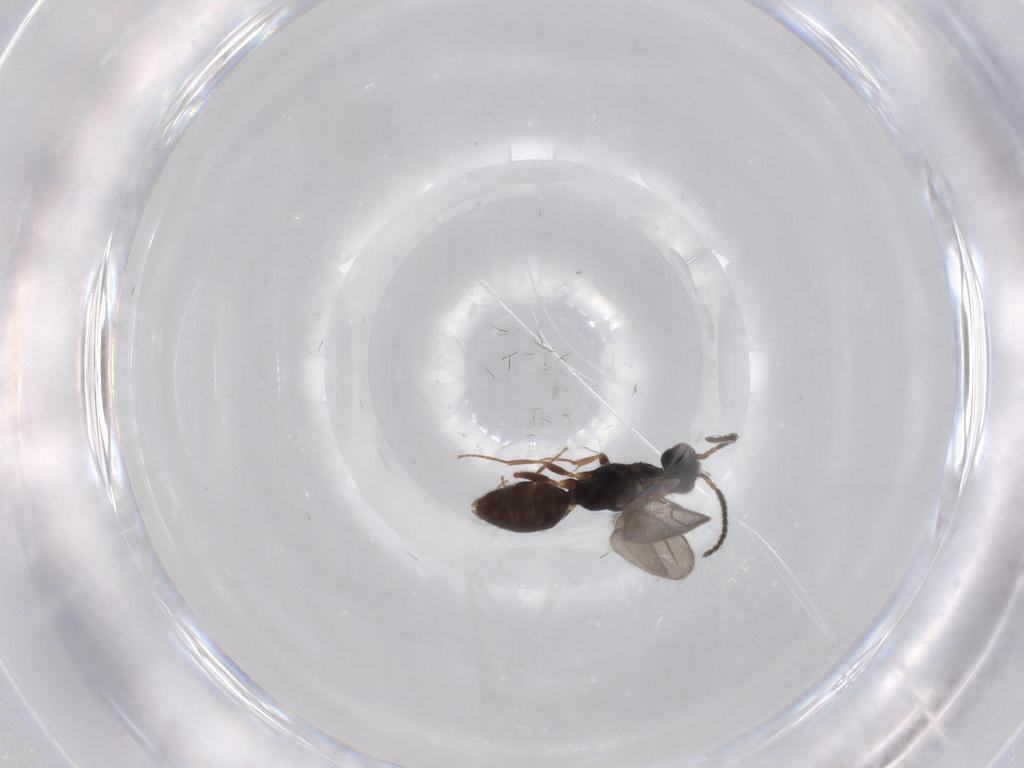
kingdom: Animalia
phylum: Arthropoda
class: Insecta
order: Hymenoptera
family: Bethylidae
